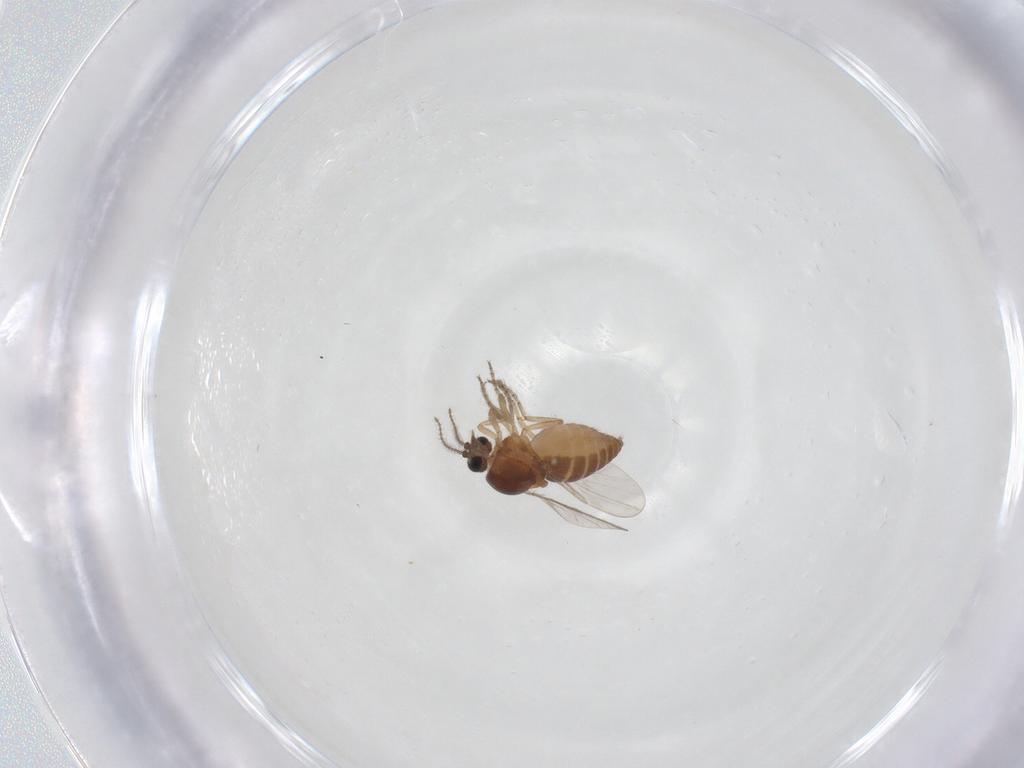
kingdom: Animalia
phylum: Arthropoda
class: Insecta
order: Diptera
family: Ceratopogonidae
